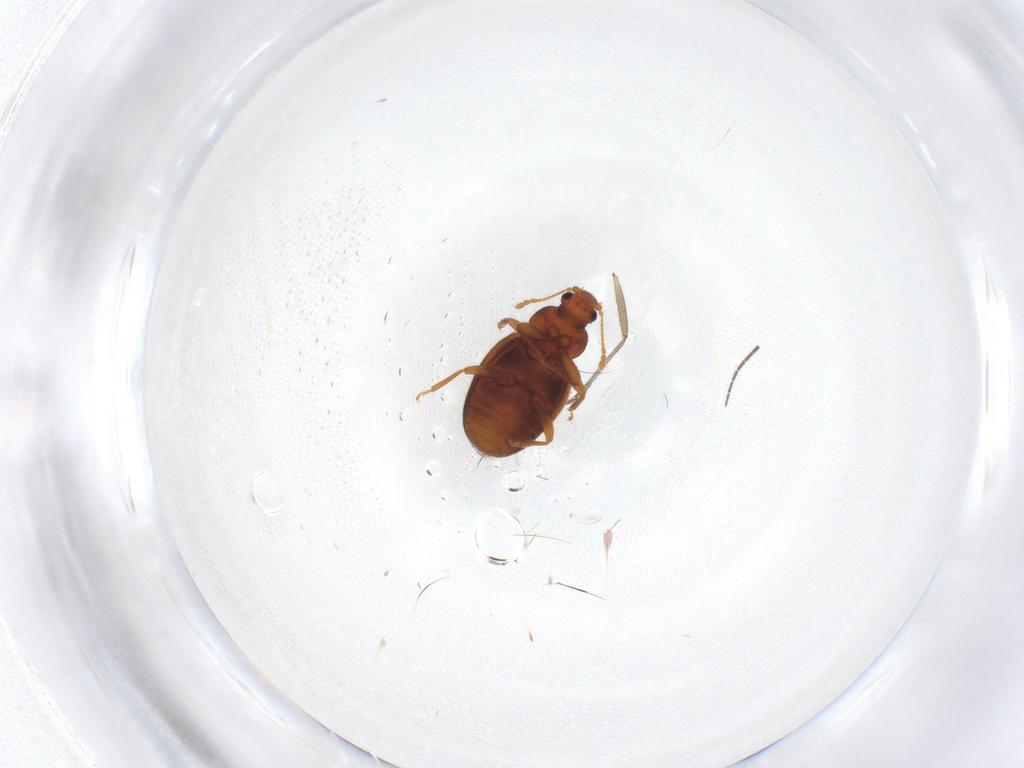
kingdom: Animalia
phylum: Arthropoda
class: Insecta
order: Coleoptera
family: Latridiidae
